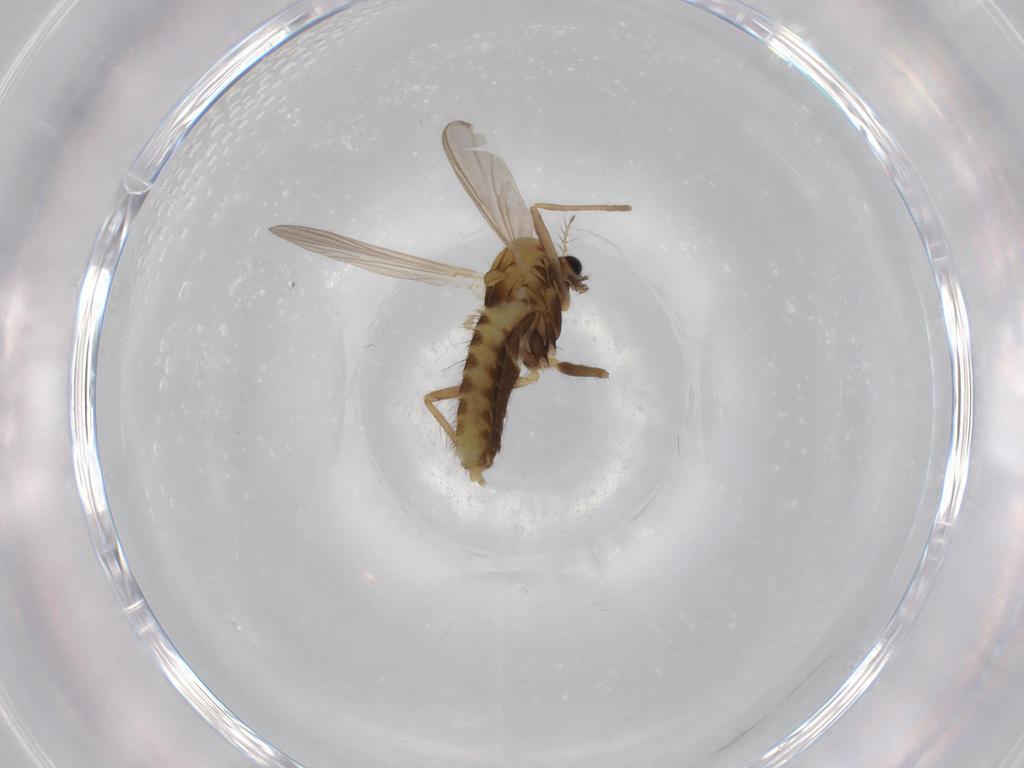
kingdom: Animalia
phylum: Arthropoda
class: Insecta
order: Diptera
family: Chironomidae
